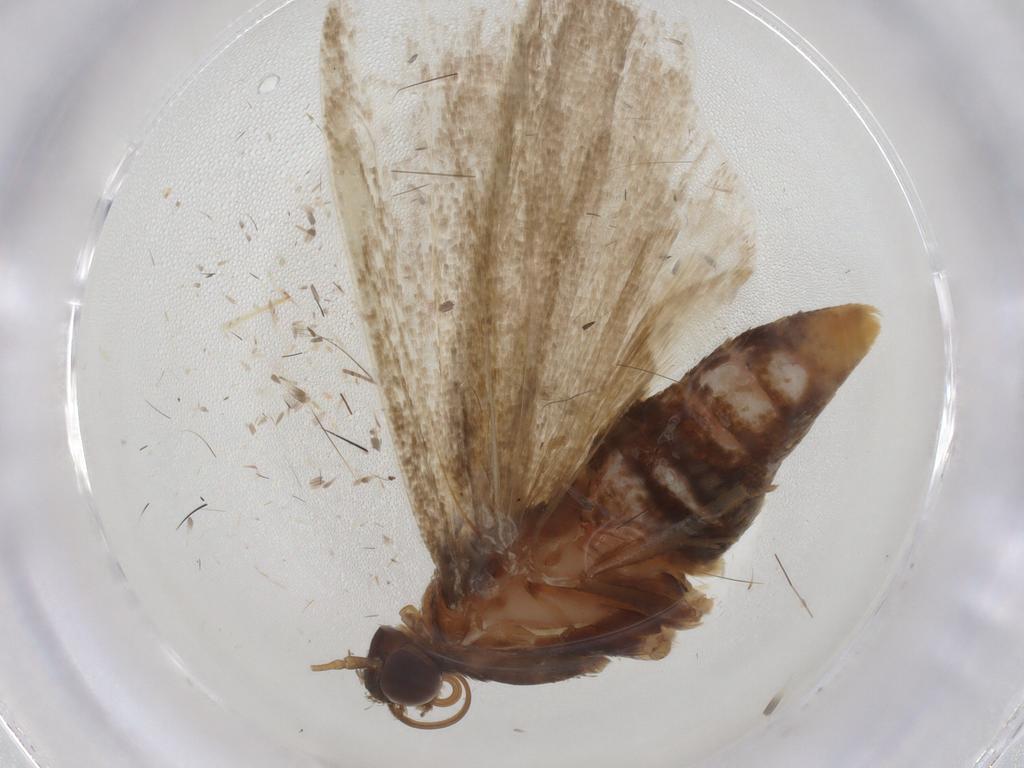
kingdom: Animalia
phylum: Arthropoda
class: Insecta
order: Lepidoptera
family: Pyralidae
